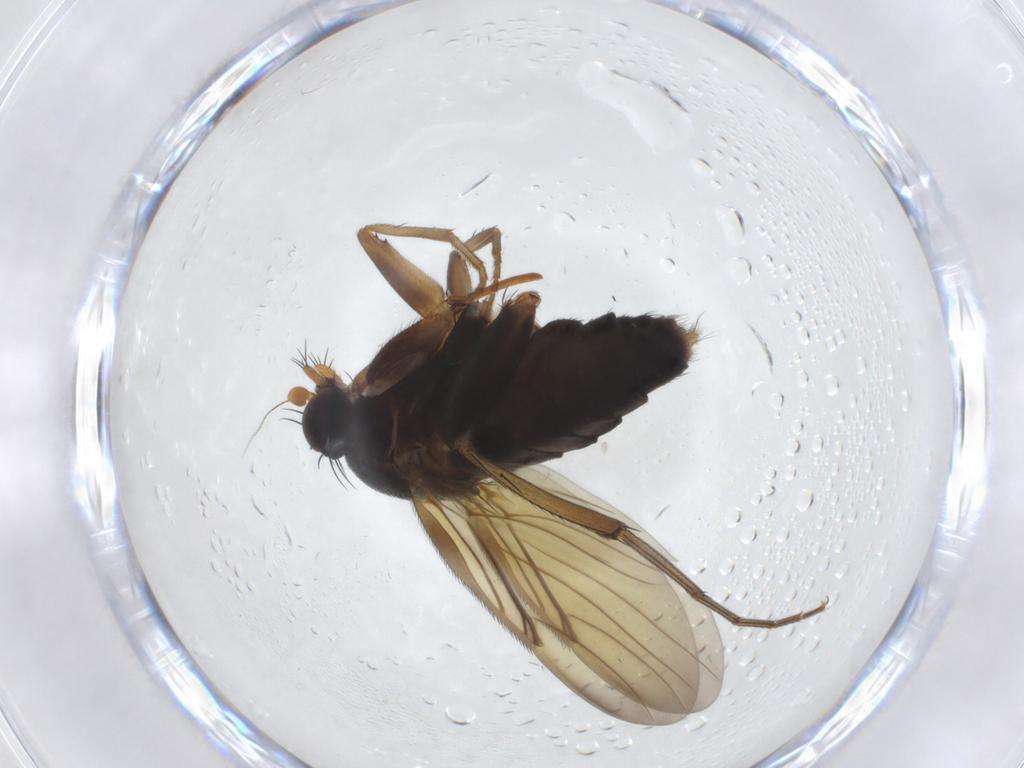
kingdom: Animalia
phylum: Arthropoda
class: Insecta
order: Diptera
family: Phoridae
